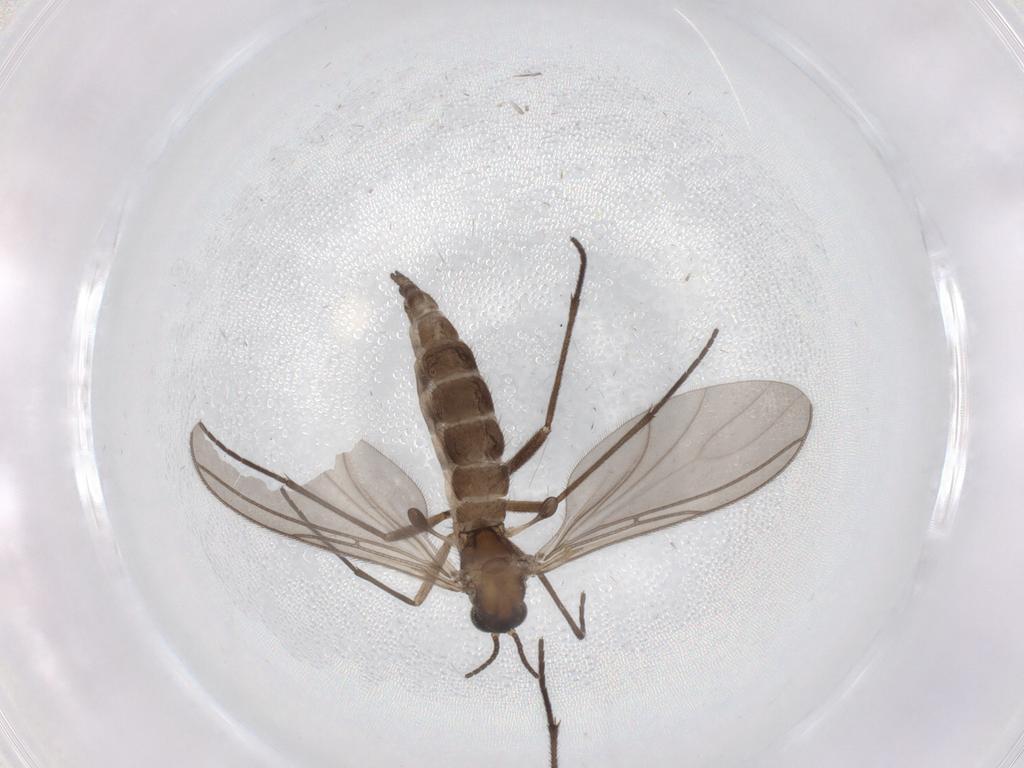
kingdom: Animalia
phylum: Arthropoda
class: Insecta
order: Diptera
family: Sciaridae
